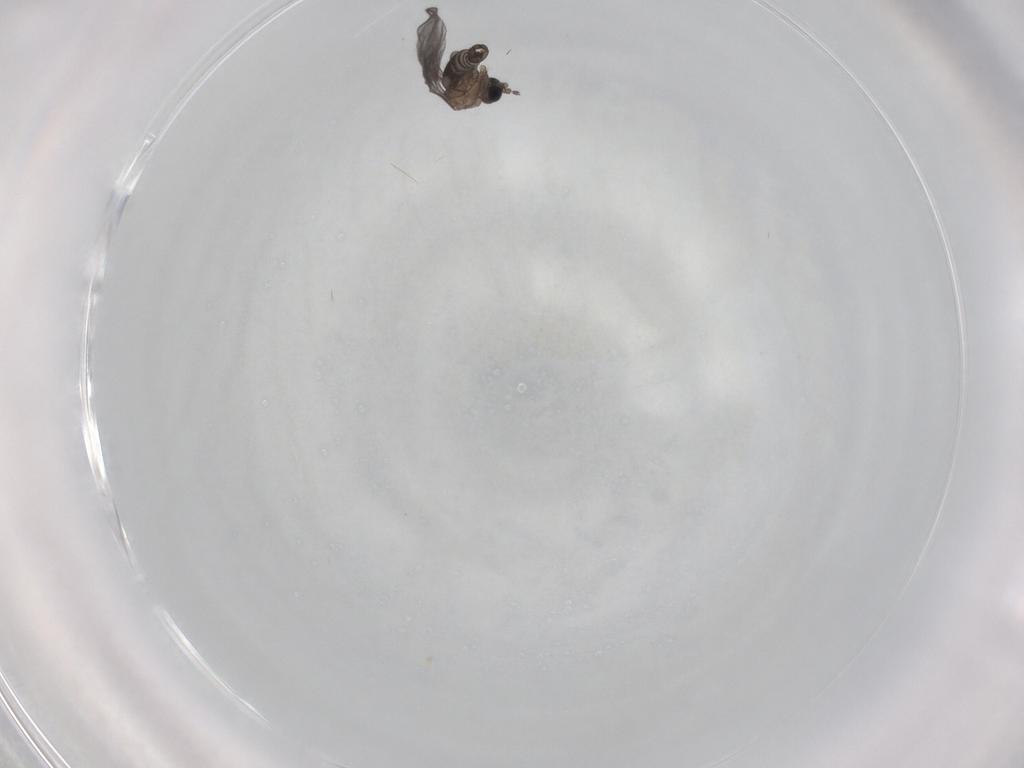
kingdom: Animalia
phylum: Arthropoda
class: Insecta
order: Diptera
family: Sciaridae
